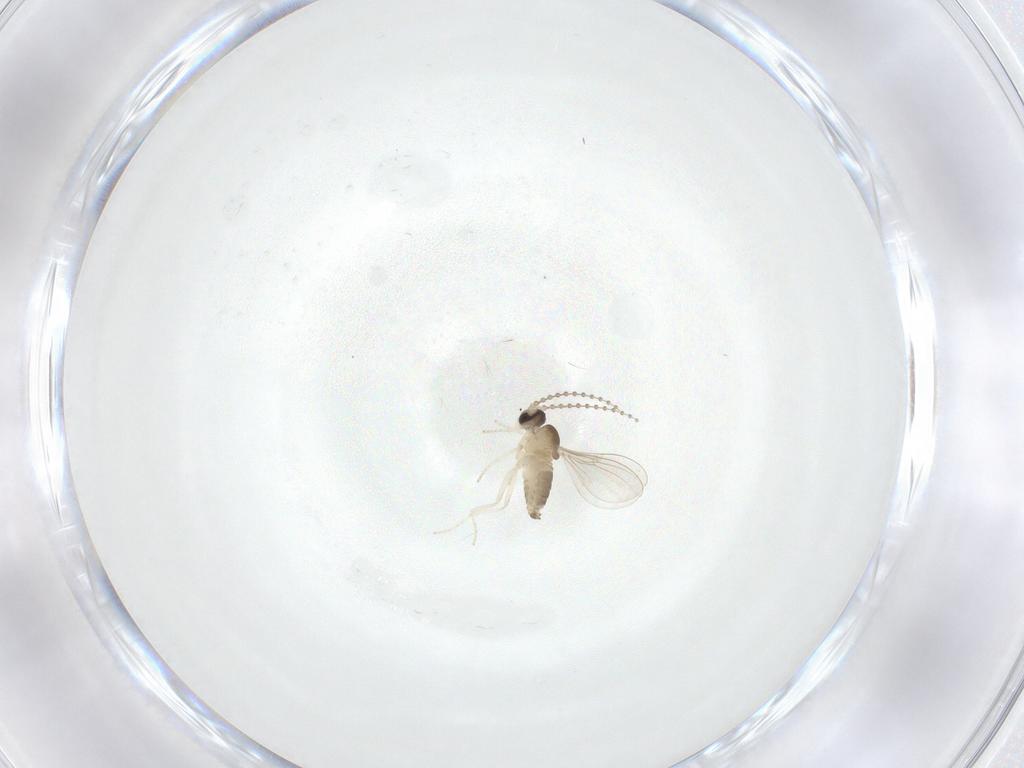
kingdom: Animalia
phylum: Arthropoda
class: Insecta
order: Diptera
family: Cecidomyiidae
